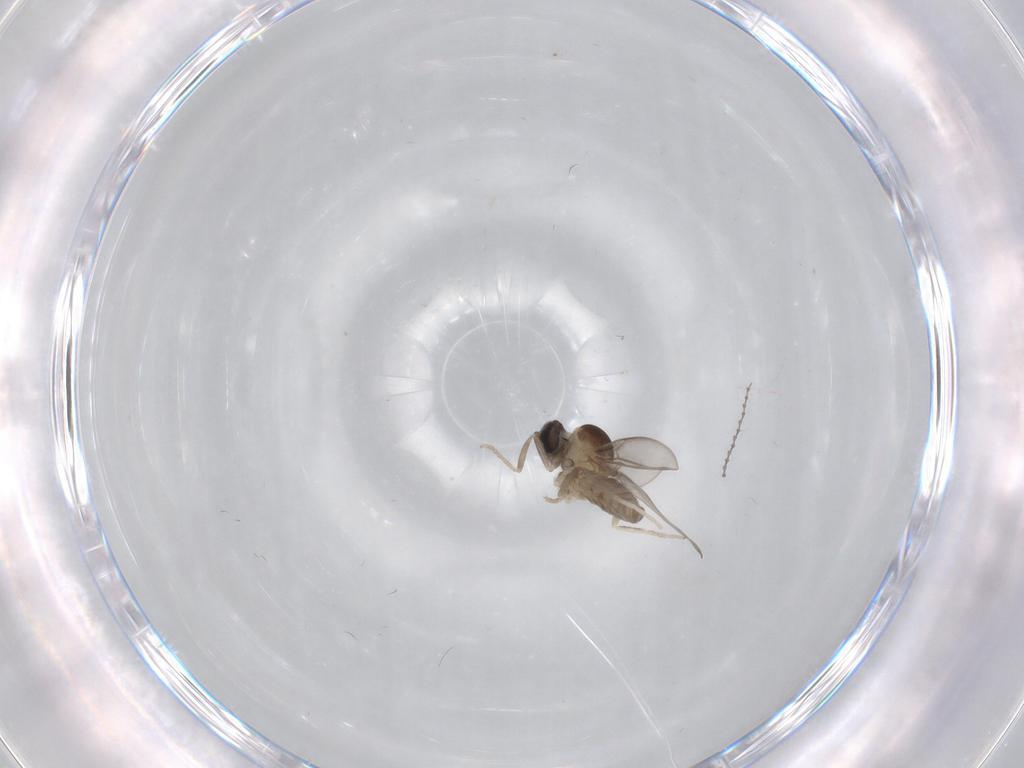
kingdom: Animalia
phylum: Arthropoda
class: Insecta
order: Diptera
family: Cecidomyiidae
